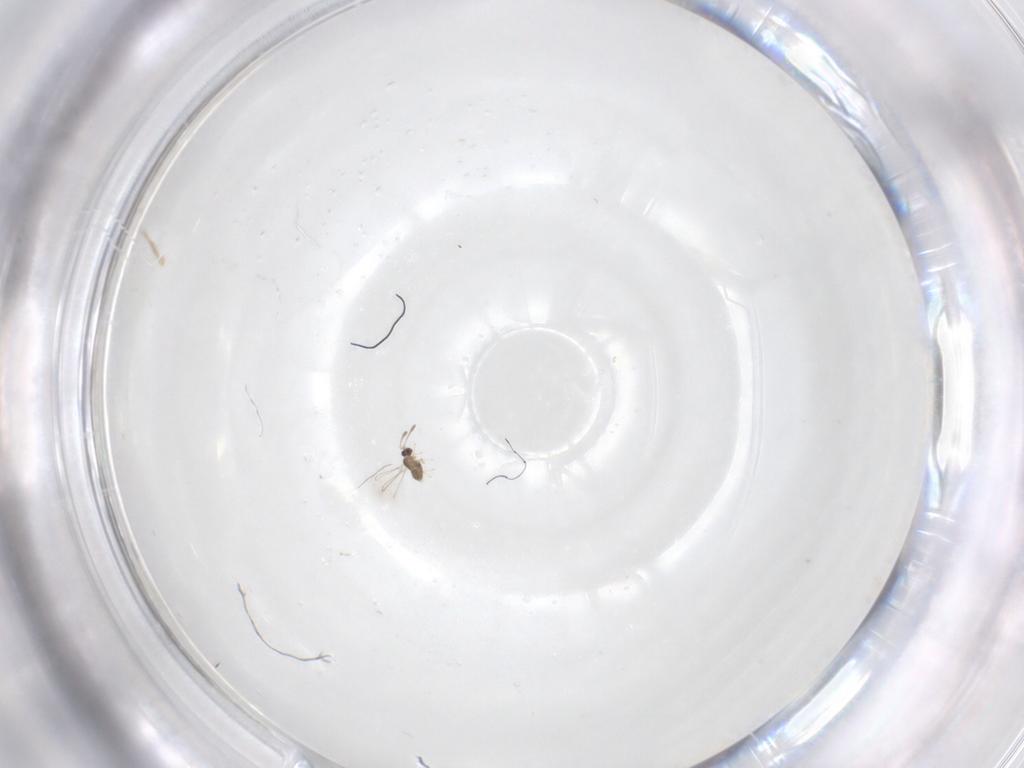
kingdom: Animalia
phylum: Arthropoda
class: Insecta
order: Hymenoptera
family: Mymaridae
